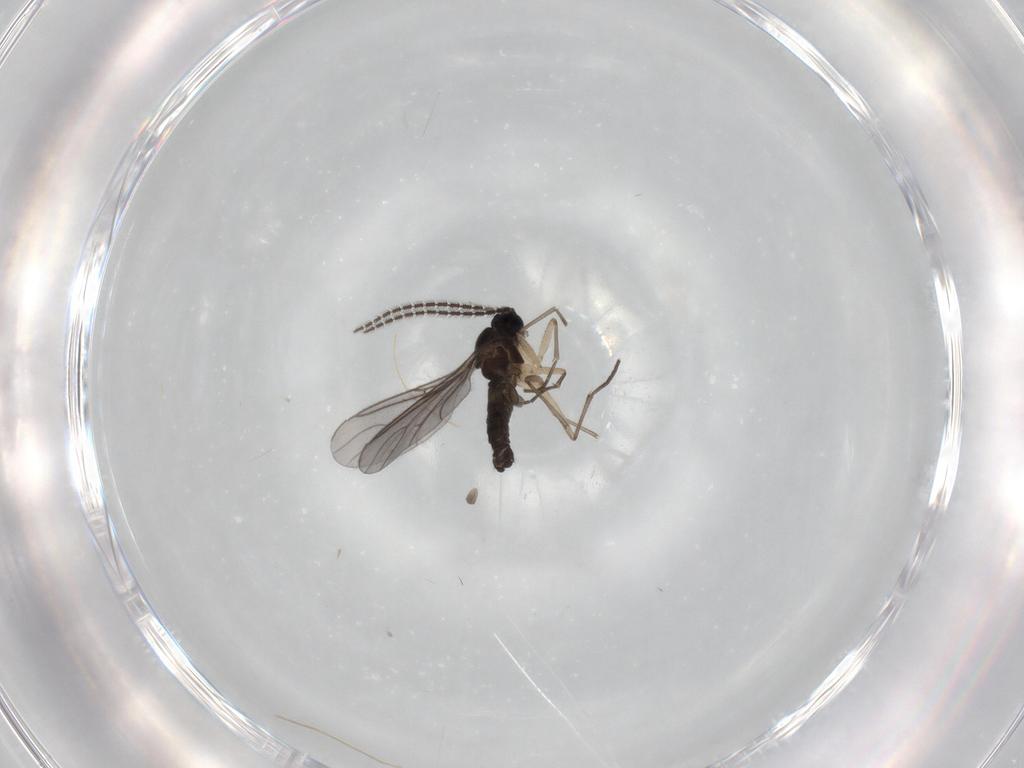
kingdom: Animalia
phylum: Arthropoda
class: Insecta
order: Diptera
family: Sciaridae
